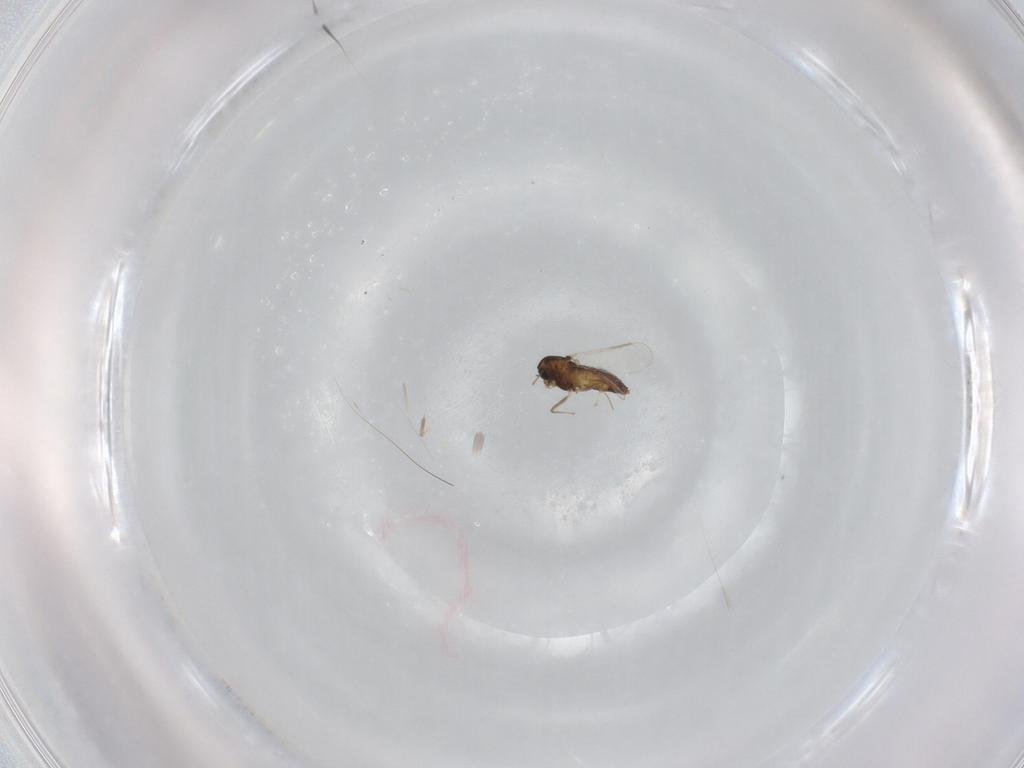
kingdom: Animalia
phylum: Arthropoda
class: Insecta
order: Diptera
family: Chironomidae
